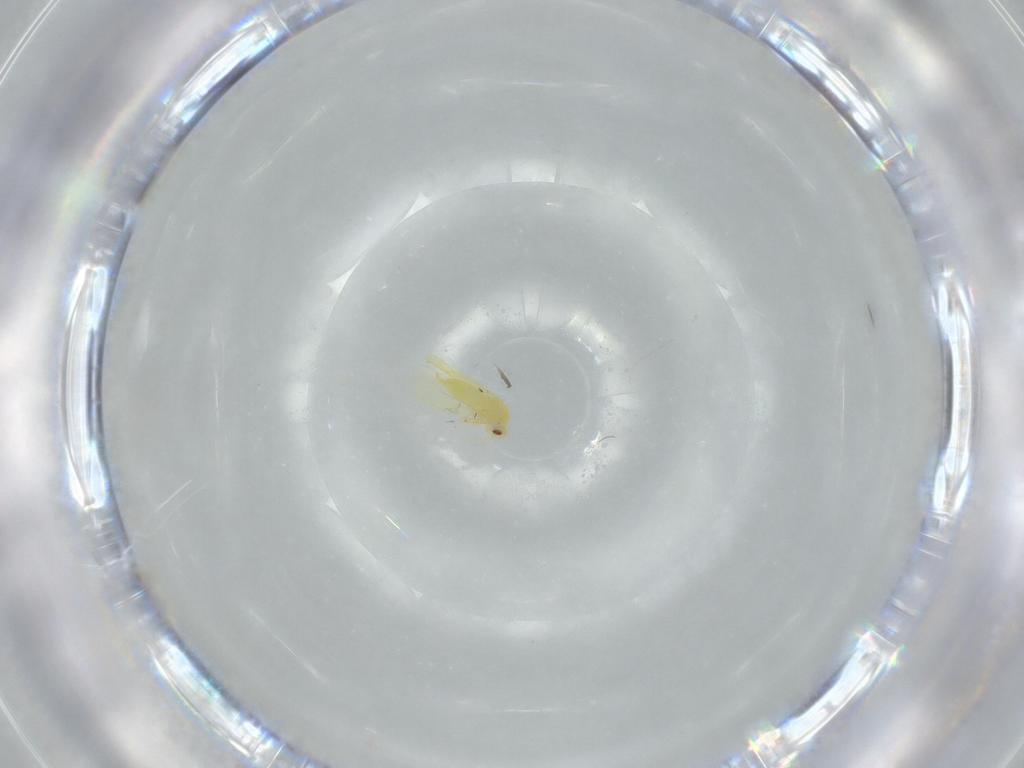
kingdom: Animalia
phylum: Arthropoda
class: Insecta
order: Hemiptera
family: Aleyrodidae
